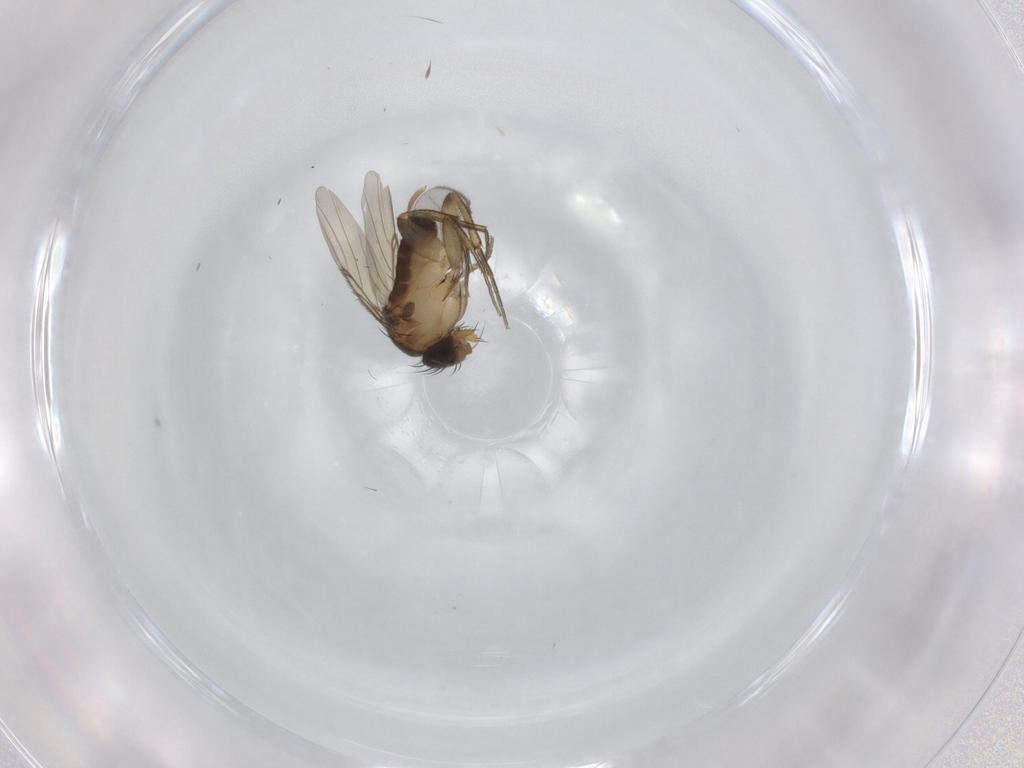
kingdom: Animalia
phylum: Arthropoda
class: Insecta
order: Diptera
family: Phoridae
